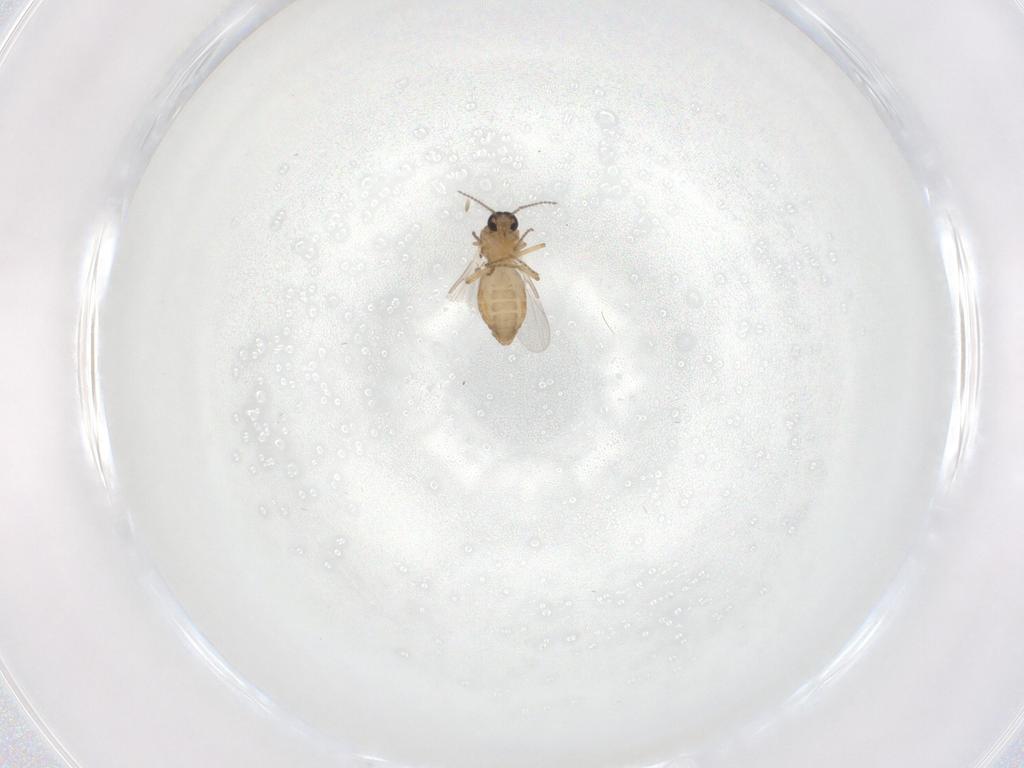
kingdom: Animalia
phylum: Arthropoda
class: Insecta
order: Diptera
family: Ceratopogonidae
